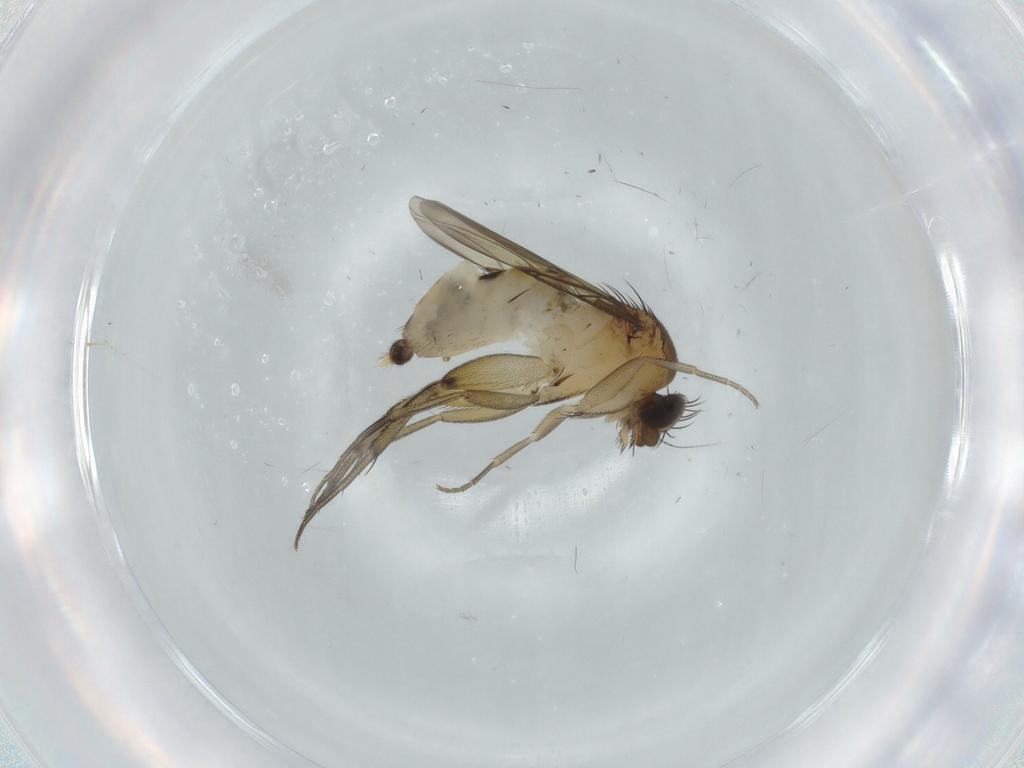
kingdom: Animalia
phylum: Arthropoda
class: Insecta
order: Diptera
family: Phoridae
